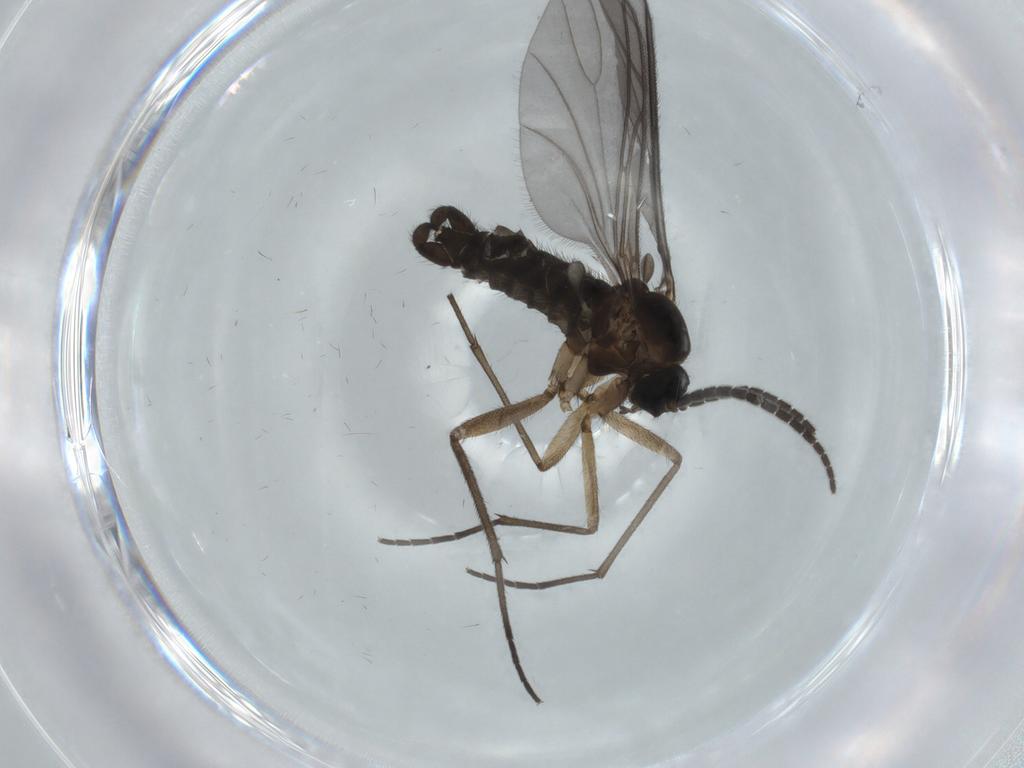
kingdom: Animalia
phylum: Arthropoda
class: Insecta
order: Diptera
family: Sciaridae
